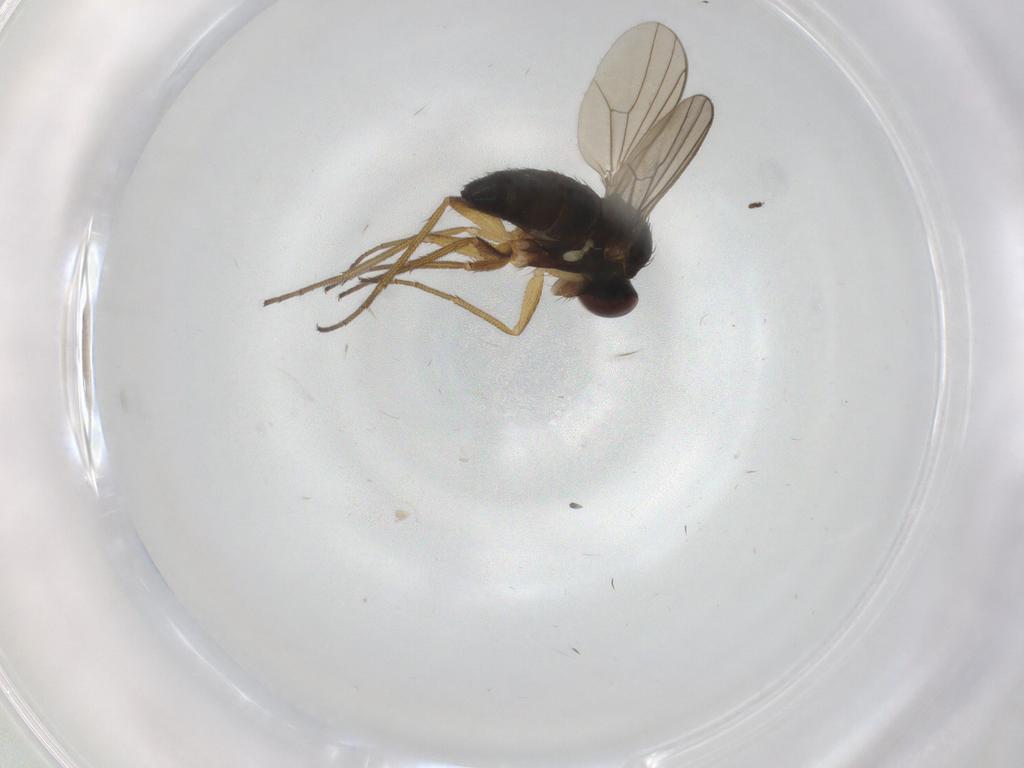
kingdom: Animalia
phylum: Arthropoda
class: Insecta
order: Diptera
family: Dolichopodidae
